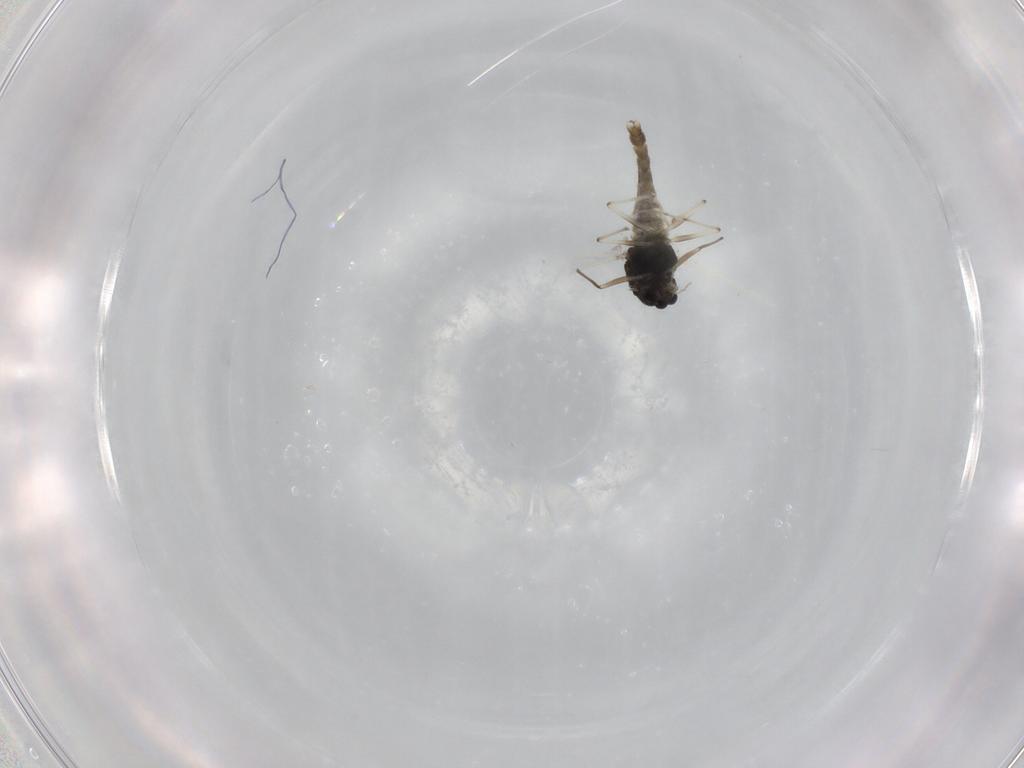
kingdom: Animalia
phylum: Arthropoda
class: Insecta
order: Diptera
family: Chironomidae
